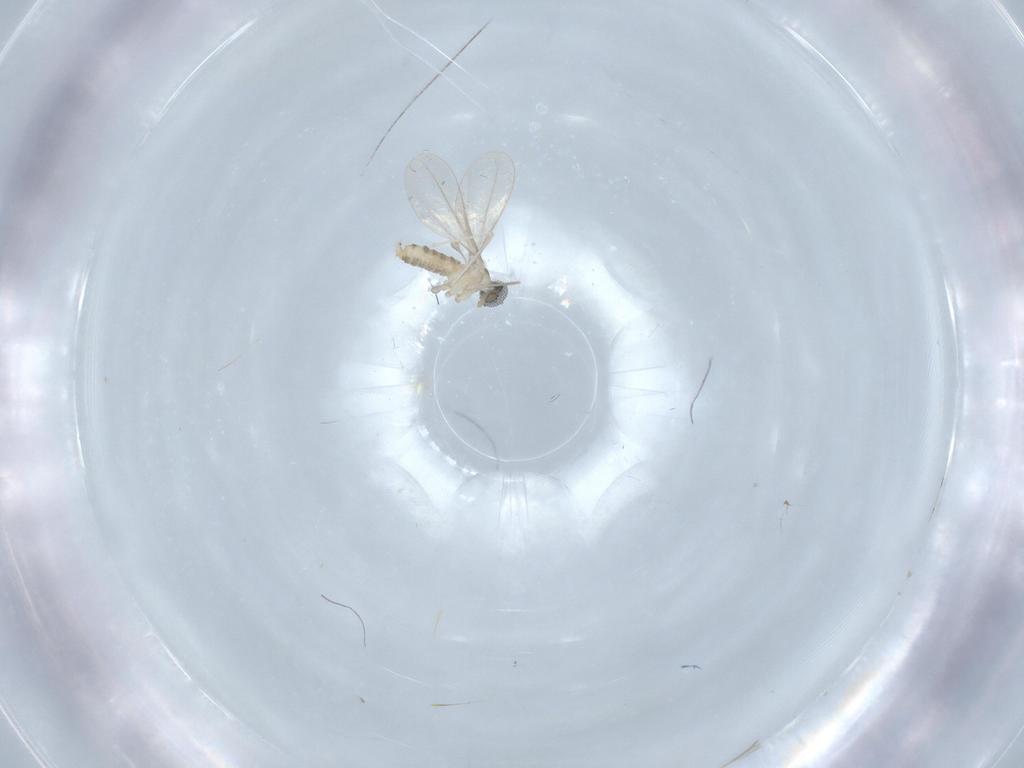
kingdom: Animalia
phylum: Arthropoda
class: Insecta
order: Diptera
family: Cecidomyiidae
